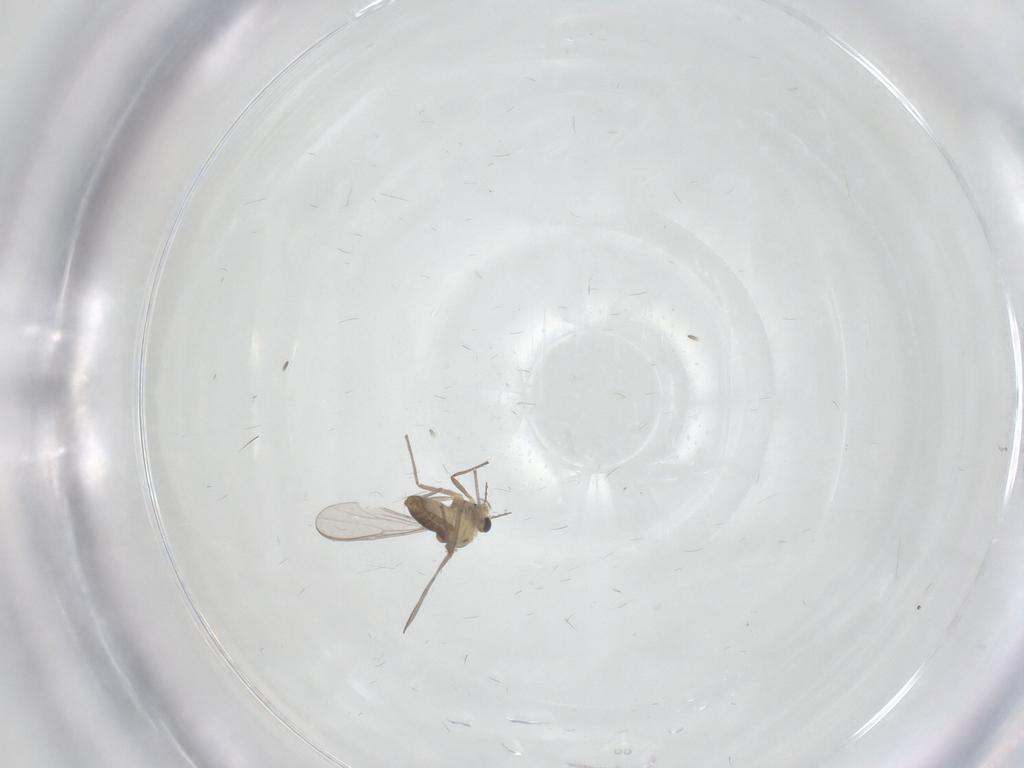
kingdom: Animalia
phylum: Arthropoda
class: Insecta
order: Diptera
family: Chironomidae
